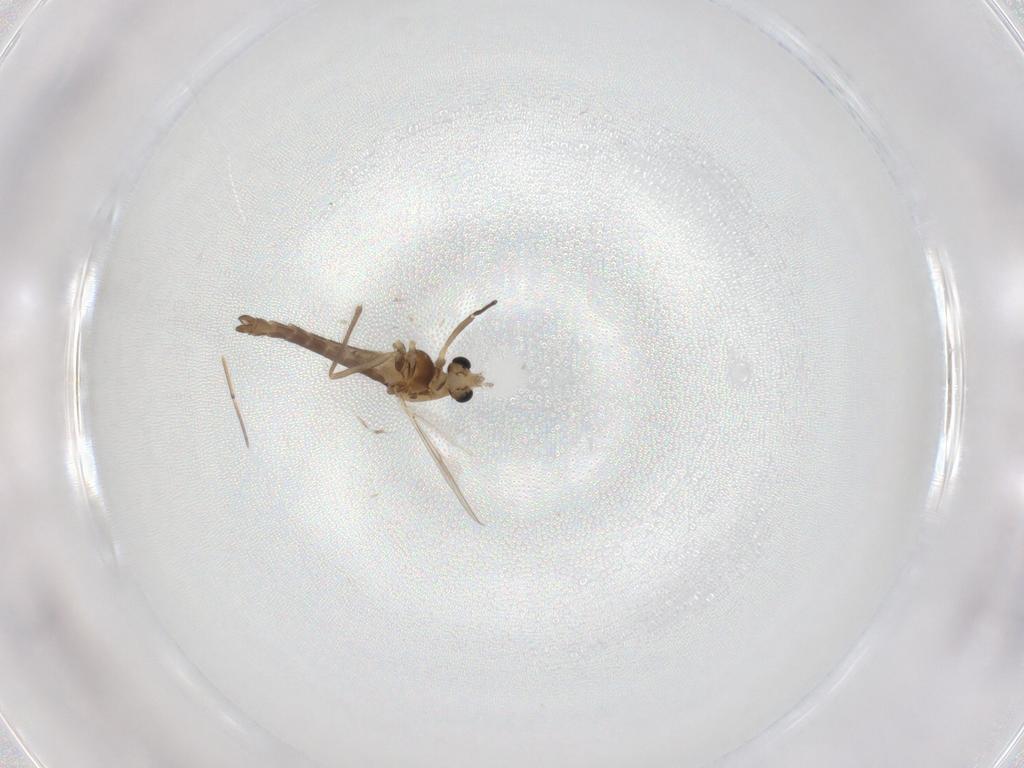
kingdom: Animalia
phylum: Arthropoda
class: Insecta
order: Diptera
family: Chironomidae
